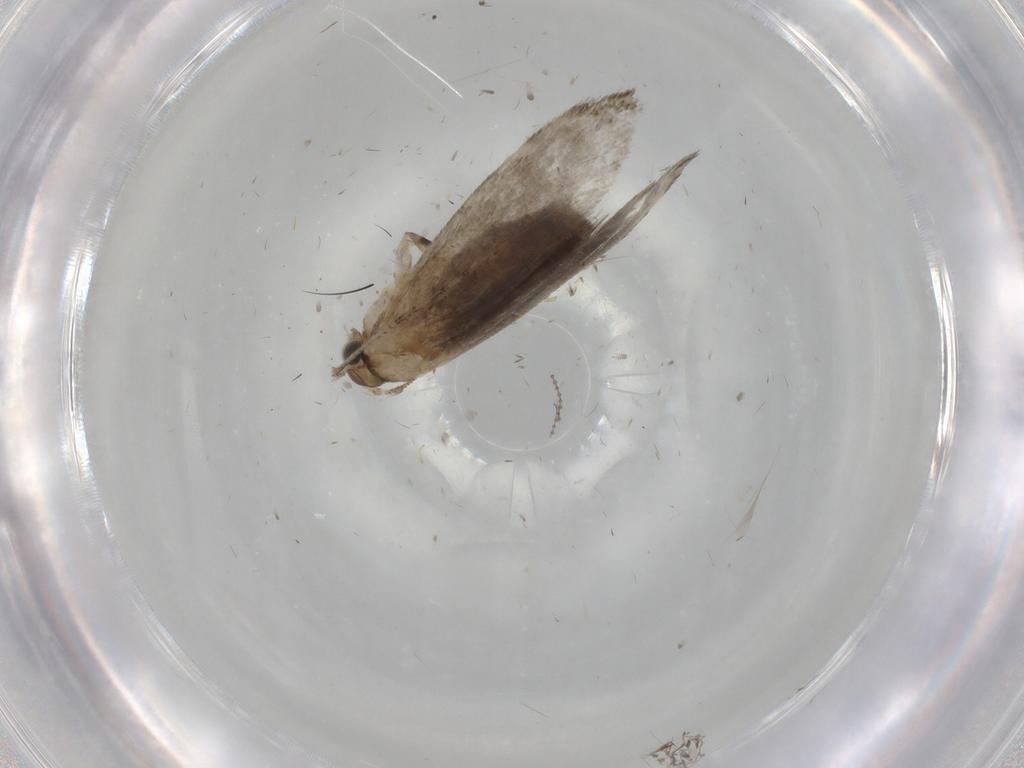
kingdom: Animalia
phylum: Arthropoda
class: Insecta
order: Lepidoptera
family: Tineidae
